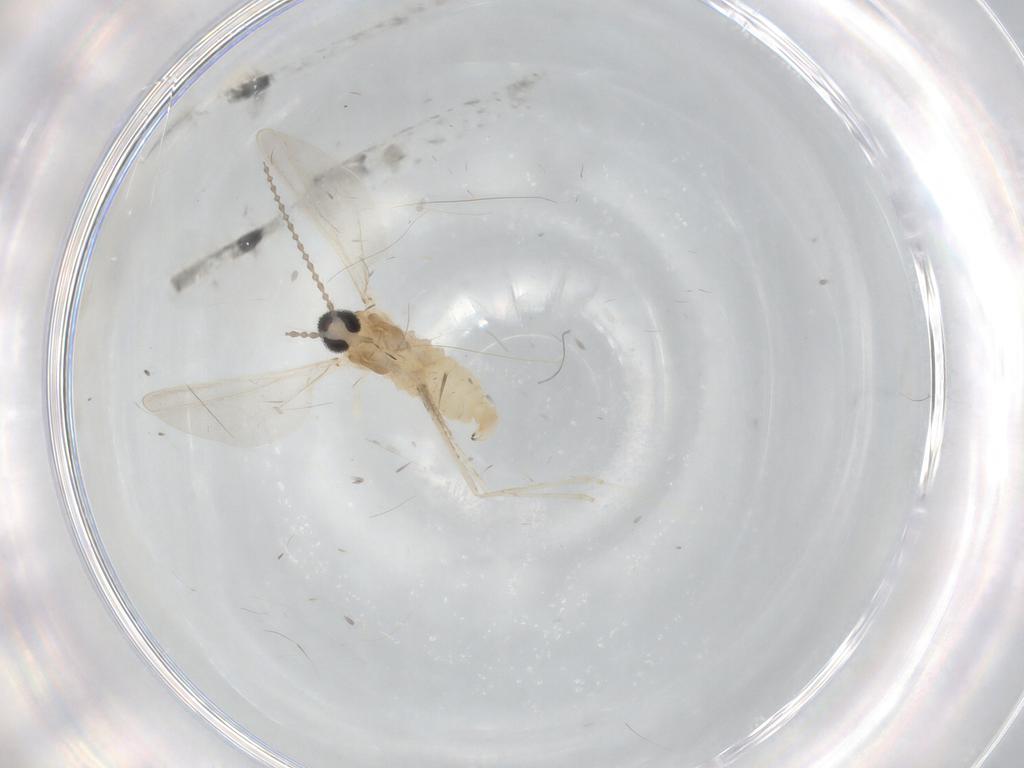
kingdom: Animalia
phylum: Arthropoda
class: Insecta
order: Diptera
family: Cecidomyiidae
